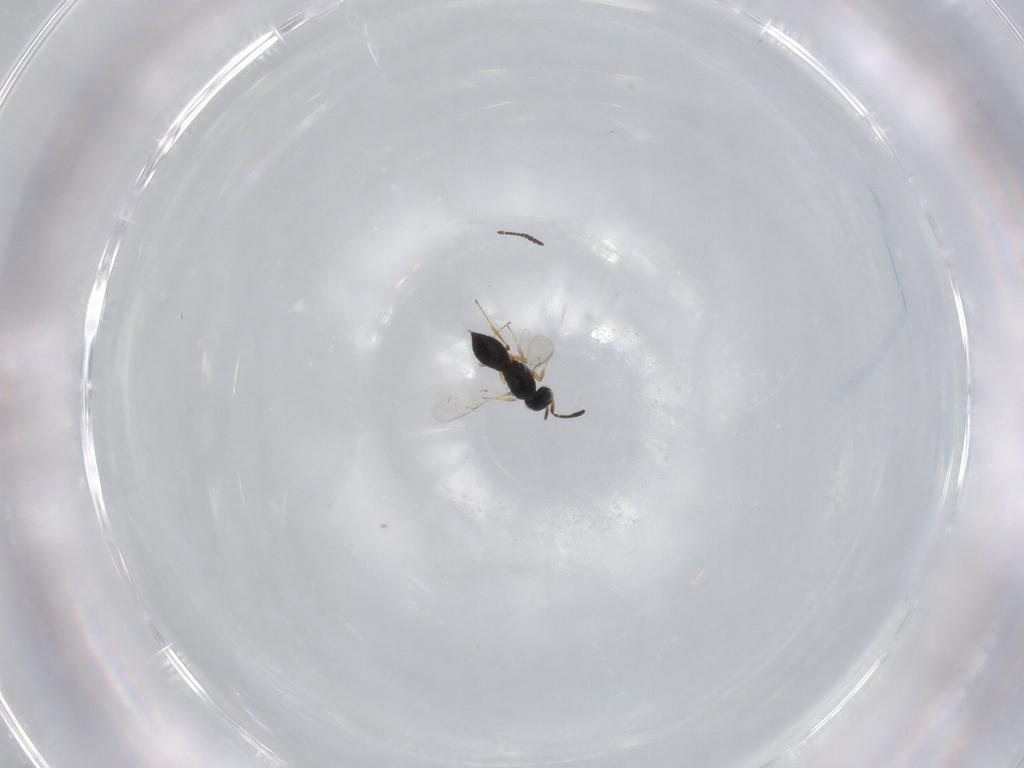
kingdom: Animalia
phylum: Arthropoda
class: Insecta
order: Hymenoptera
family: Scelionidae
